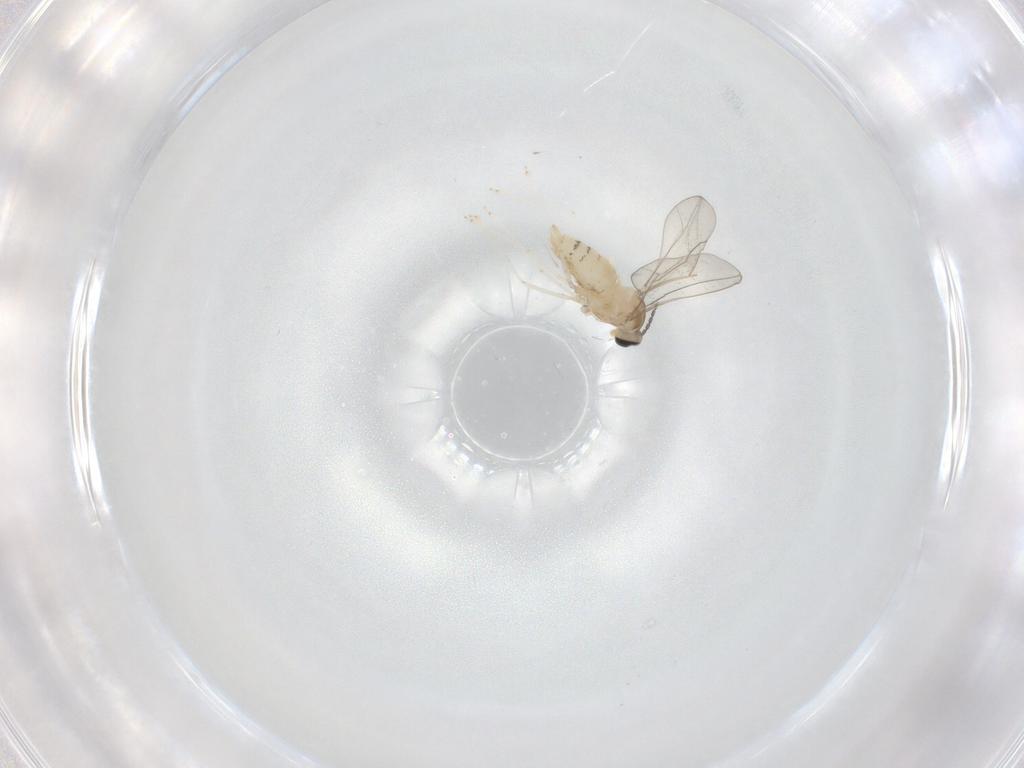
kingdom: Animalia
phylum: Arthropoda
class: Insecta
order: Diptera
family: Cecidomyiidae
